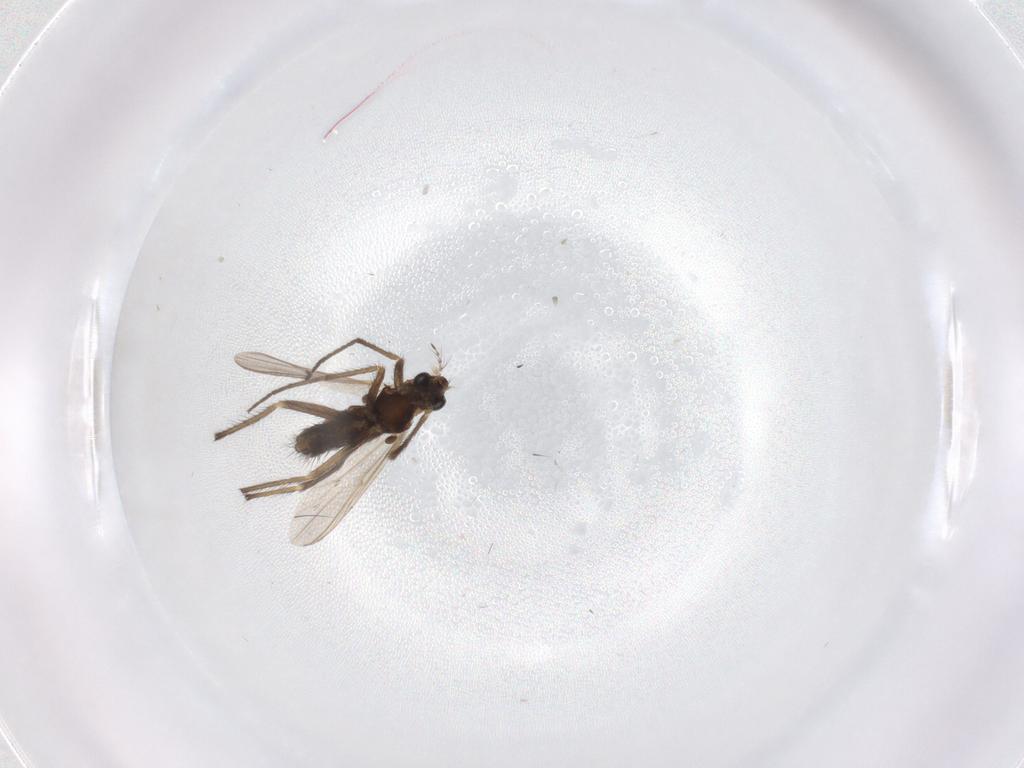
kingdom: Animalia
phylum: Arthropoda
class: Insecta
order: Diptera
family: Chironomidae
